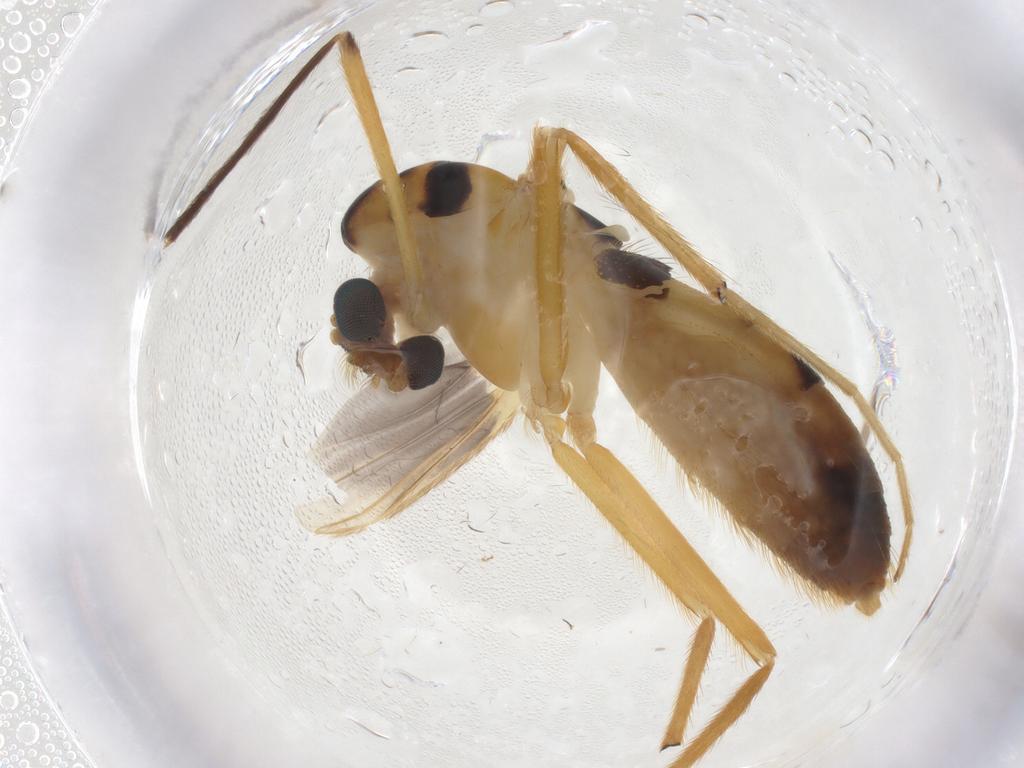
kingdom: Animalia
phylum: Arthropoda
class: Insecta
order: Diptera
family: Chironomidae
